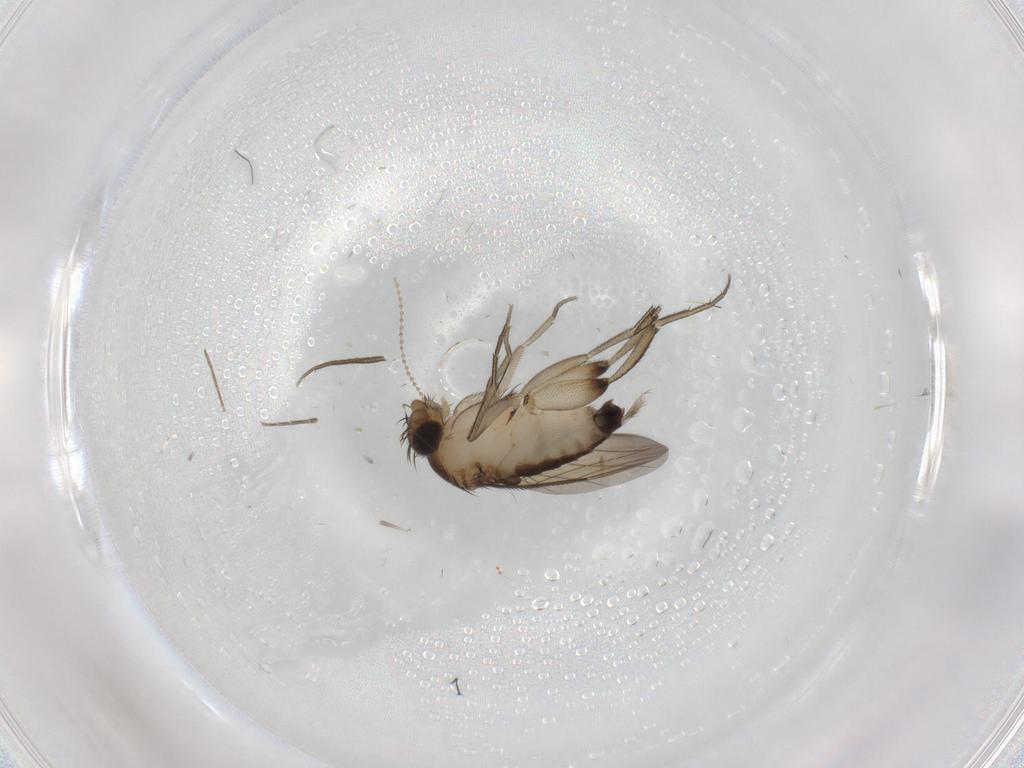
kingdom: Animalia
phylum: Arthropoda
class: Insecta
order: Diptera
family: Phoridae
